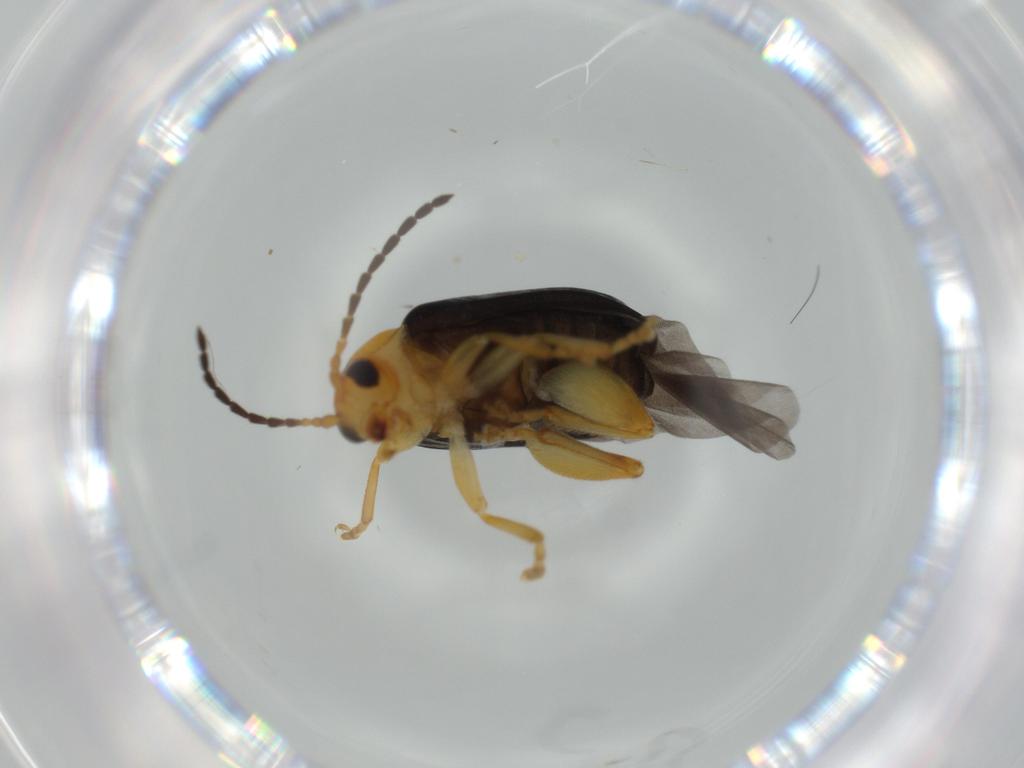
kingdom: Animalia
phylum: Arthropoda
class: Insecta
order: Coleoptera
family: Chrysomelidae
